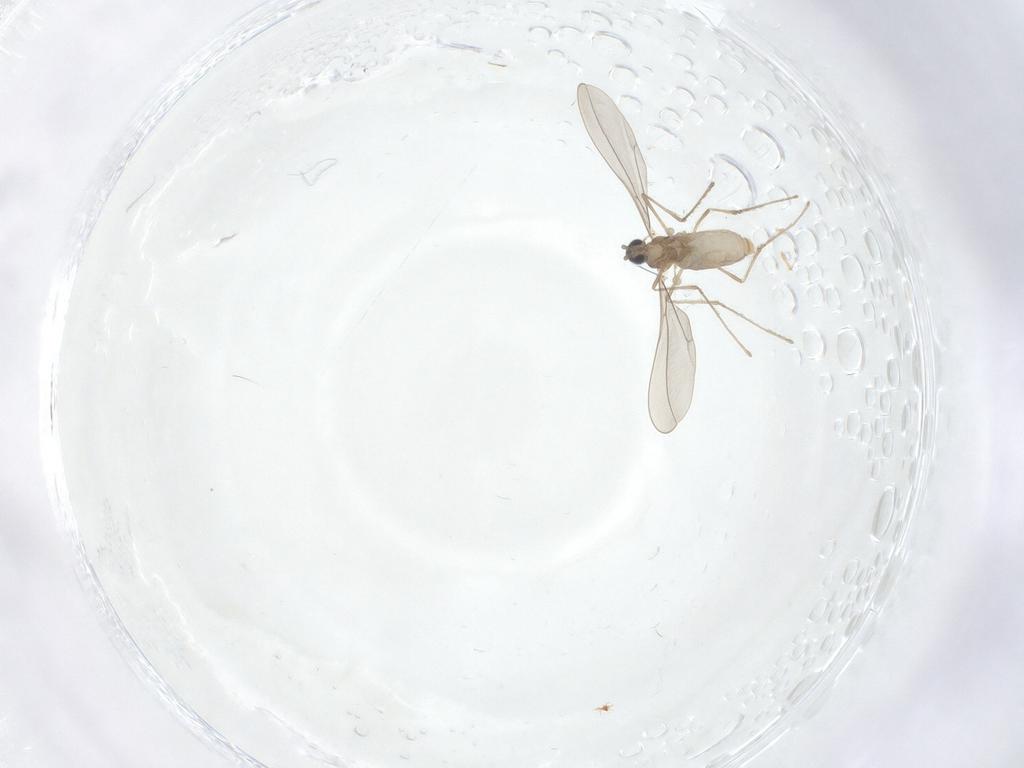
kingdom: Animalia
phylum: Arthropoda
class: Insecta
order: Diptera
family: Cecidomyiidae
